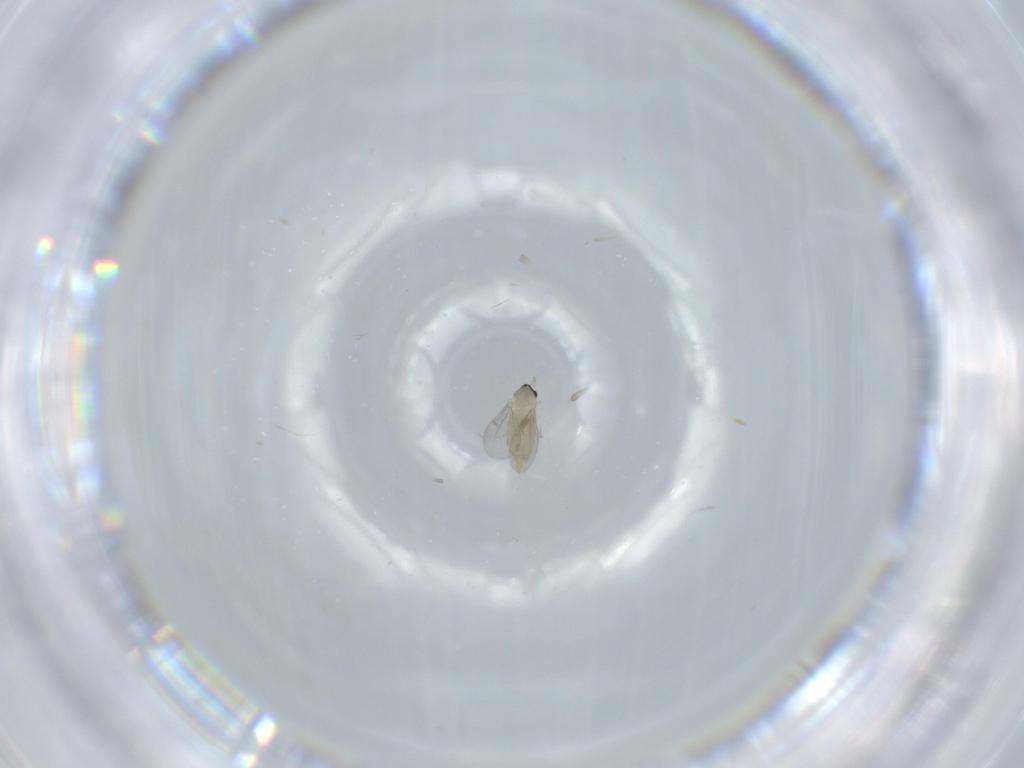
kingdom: Animalia
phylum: Arthropoda
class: Insecta
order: Diptera
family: Cecidomyiidae
